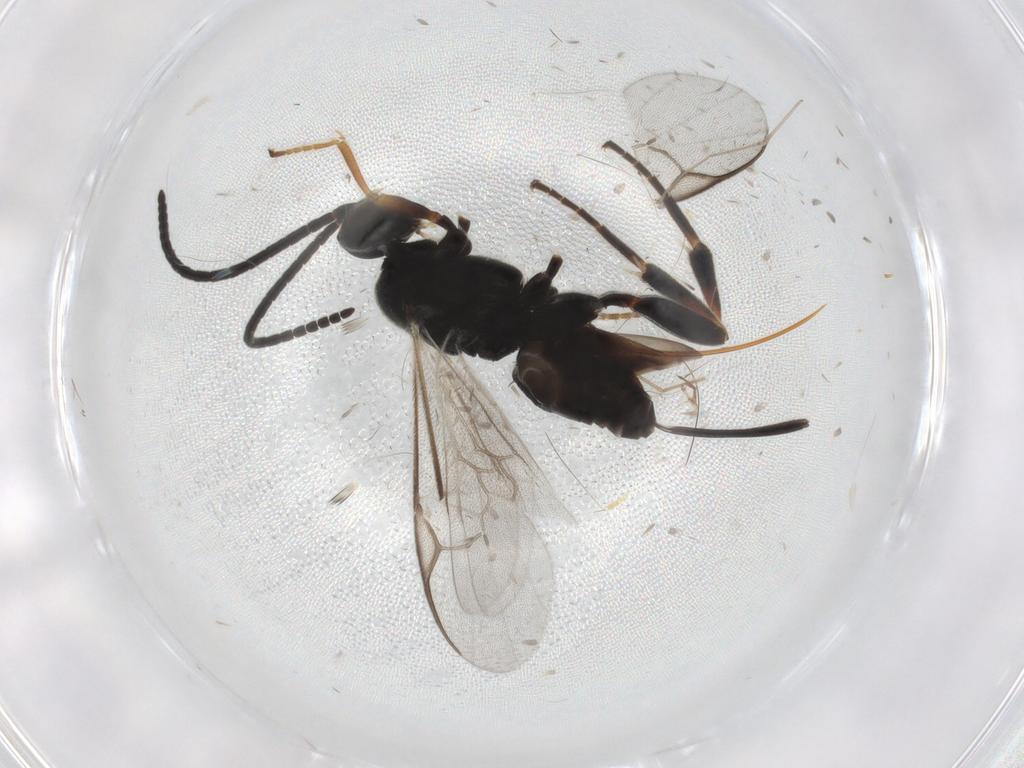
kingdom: Animalia
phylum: Arthropoda
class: Insecta
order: Hymenoptera
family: Braconidae
